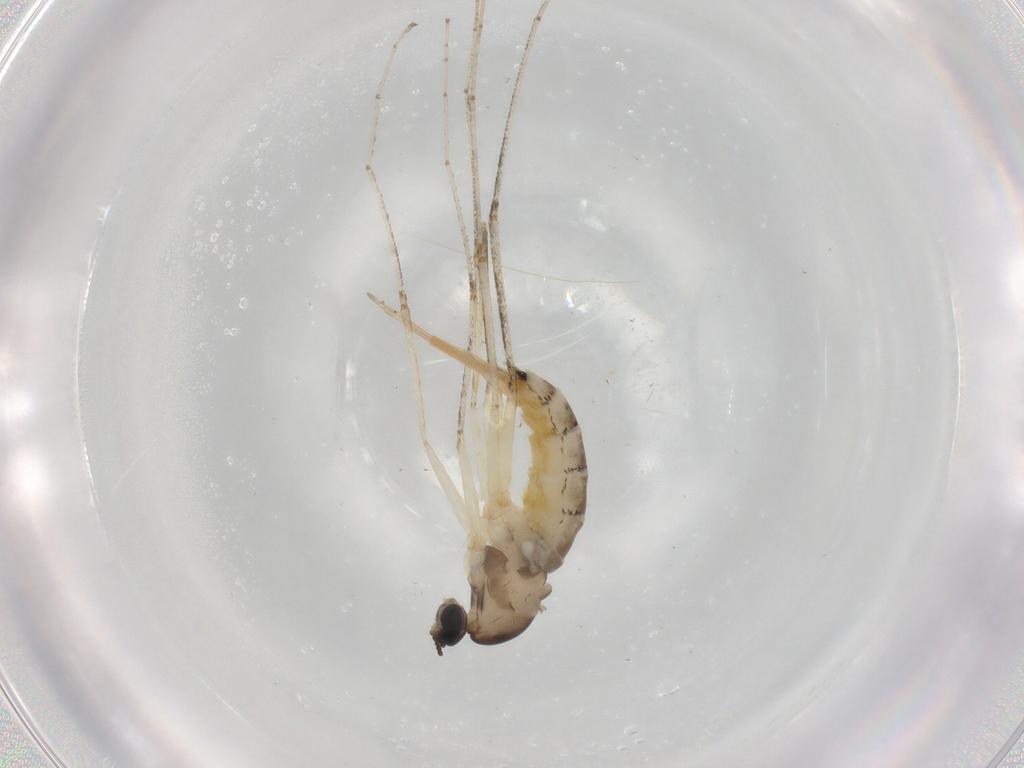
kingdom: Animalia
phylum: Arthropoda
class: Insecta
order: Diptera
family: Cecidomyiidae
